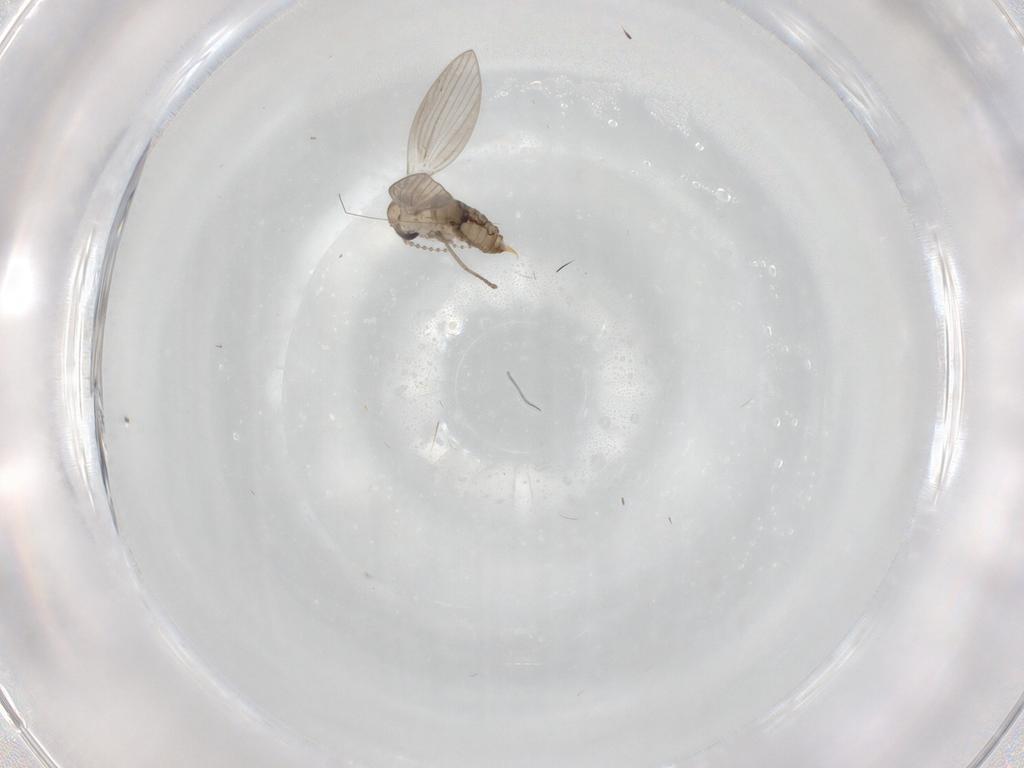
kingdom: Animalia
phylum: Arthropoda
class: Insecta
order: Diptera
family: Psychodidae
